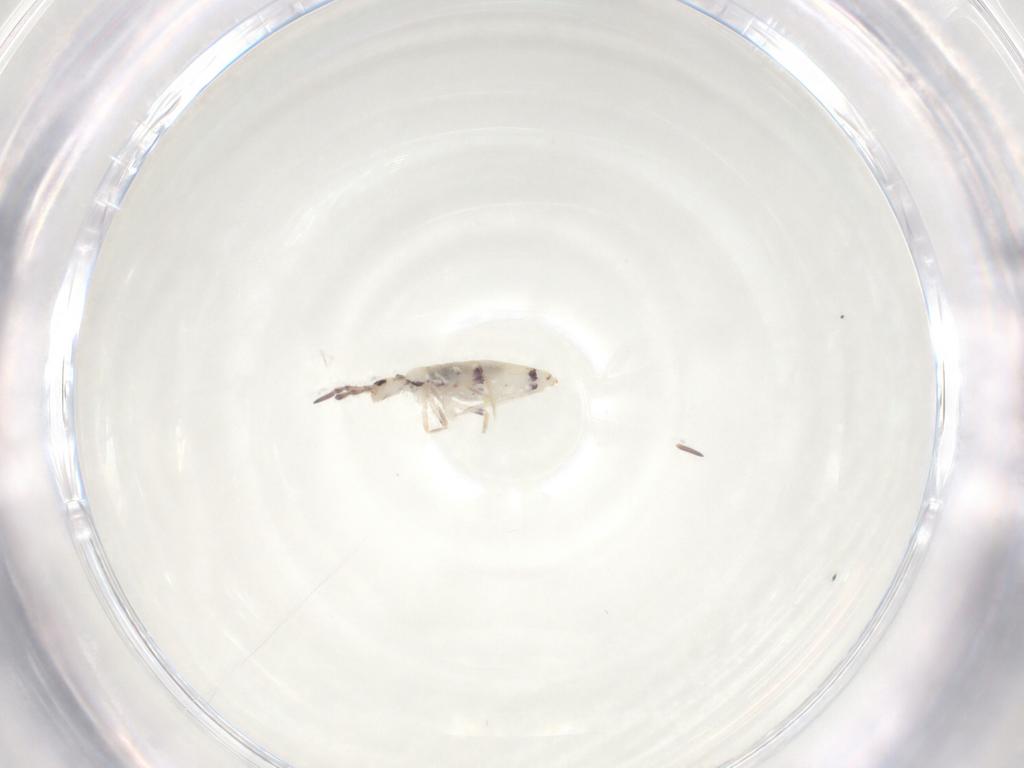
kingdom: Animalia
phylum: Arthropoda
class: Collembola
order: Entomobryomorpha
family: Entomobryidae
